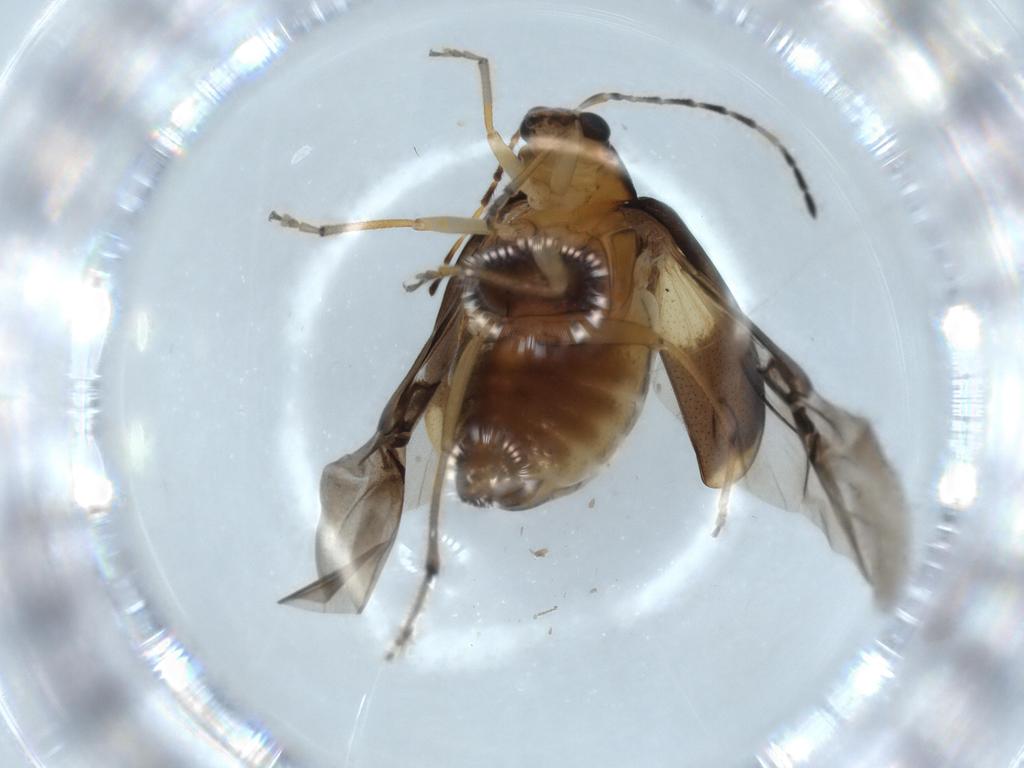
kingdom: Animalia
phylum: Arthropoda
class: Insecta
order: Coleoptera
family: Chrysomelidae
